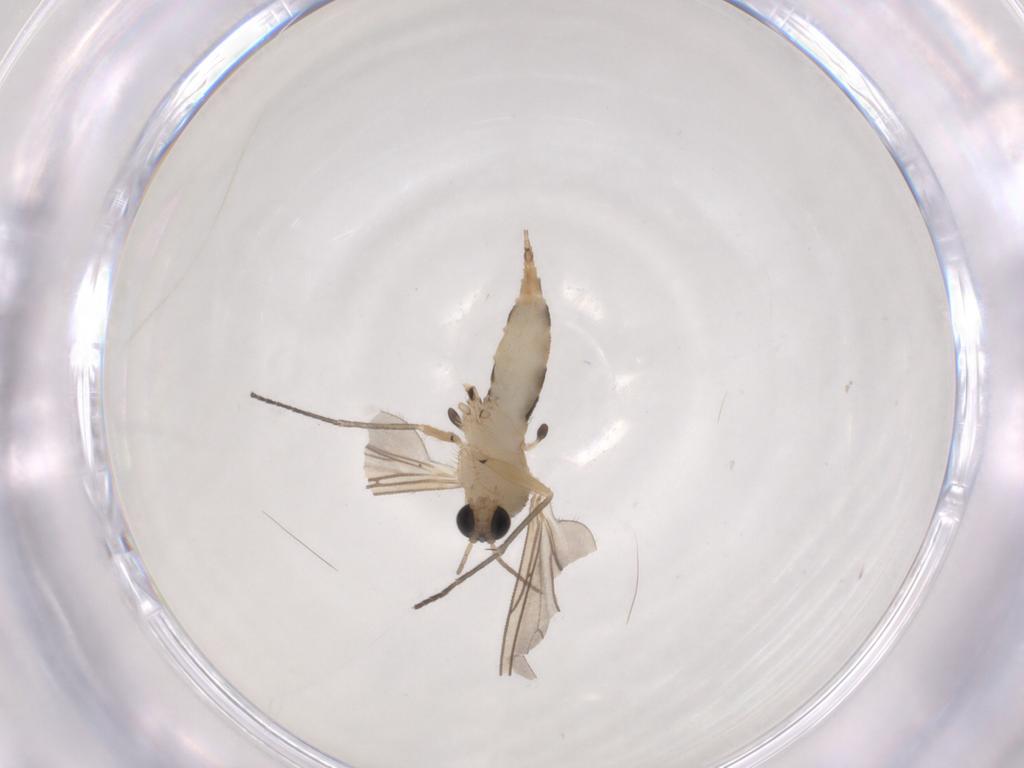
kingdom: Animalia
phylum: Arthropoda
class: Insecta
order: Diptera
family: Sciaridae
